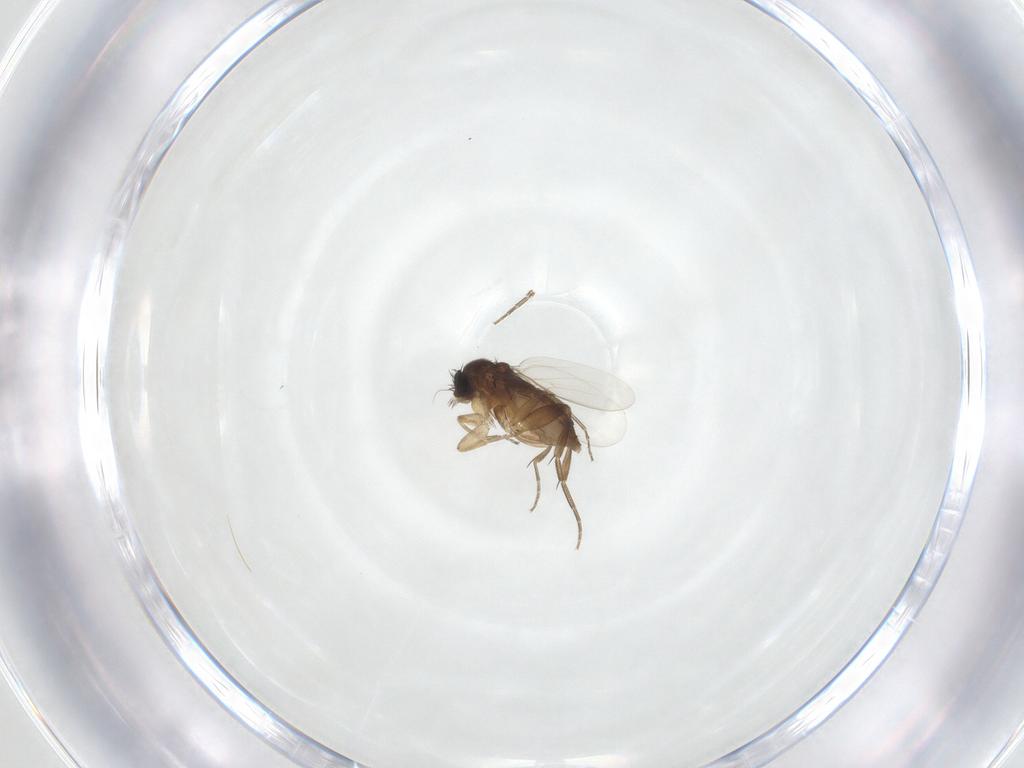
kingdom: Animalia
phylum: Arthropoda
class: Insecta
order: Diptera
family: Phoridae
